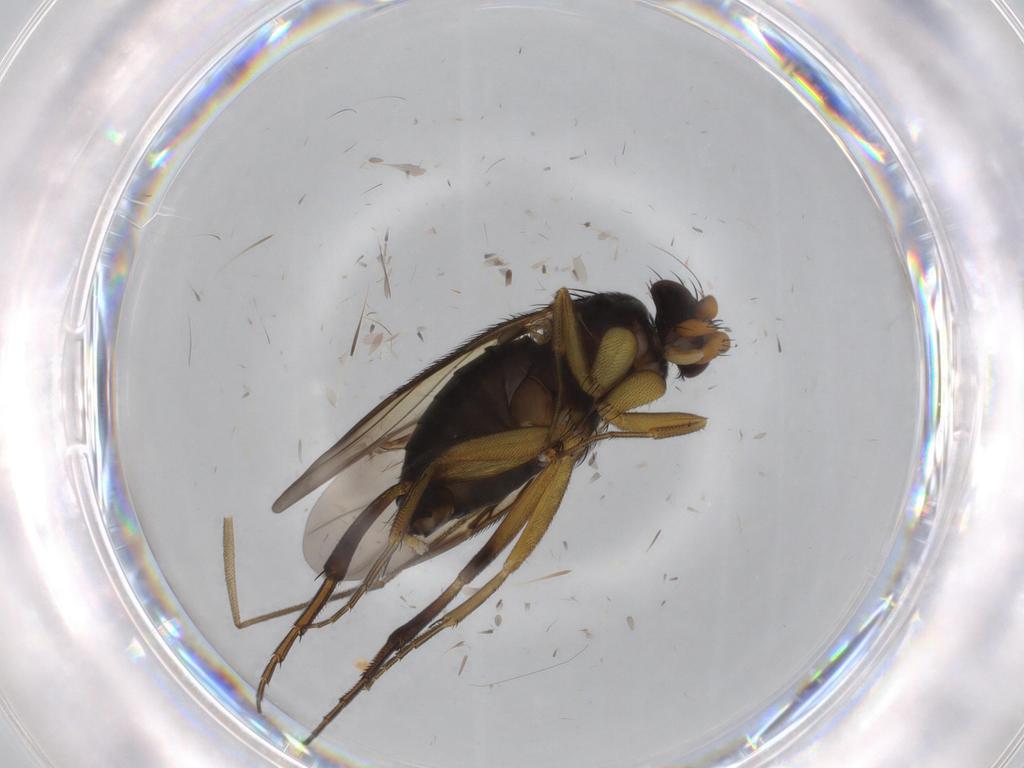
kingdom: Animalia
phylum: Arthropoda
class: Insecta
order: Diptera
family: Phoridae
